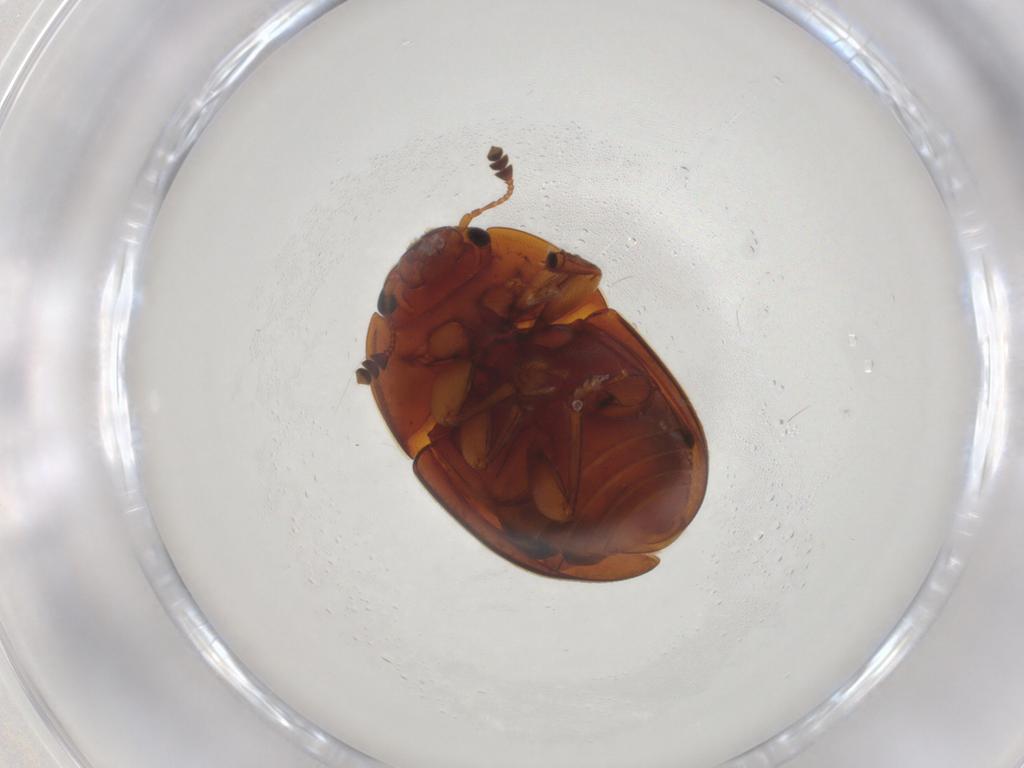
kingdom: Animalia
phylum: Arthropoda
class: Insecta
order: Coleoptera
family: Nitidulidae
